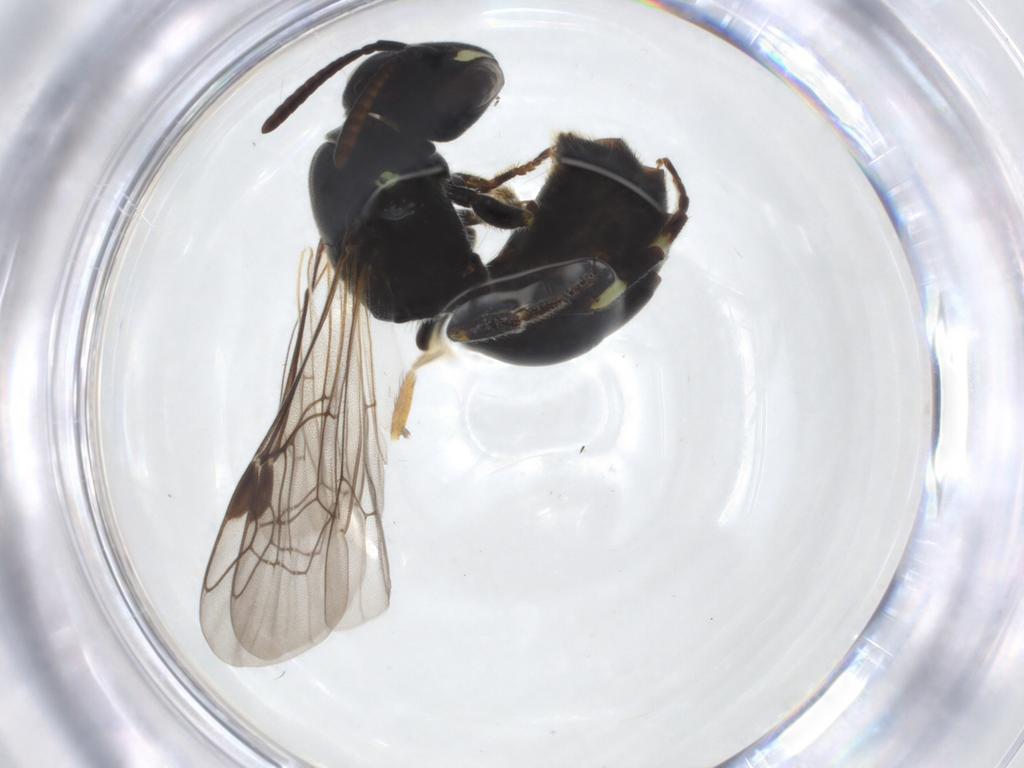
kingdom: Animalia
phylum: Arthropoda
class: Insecta
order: Hymenoptera
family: Colletidae
